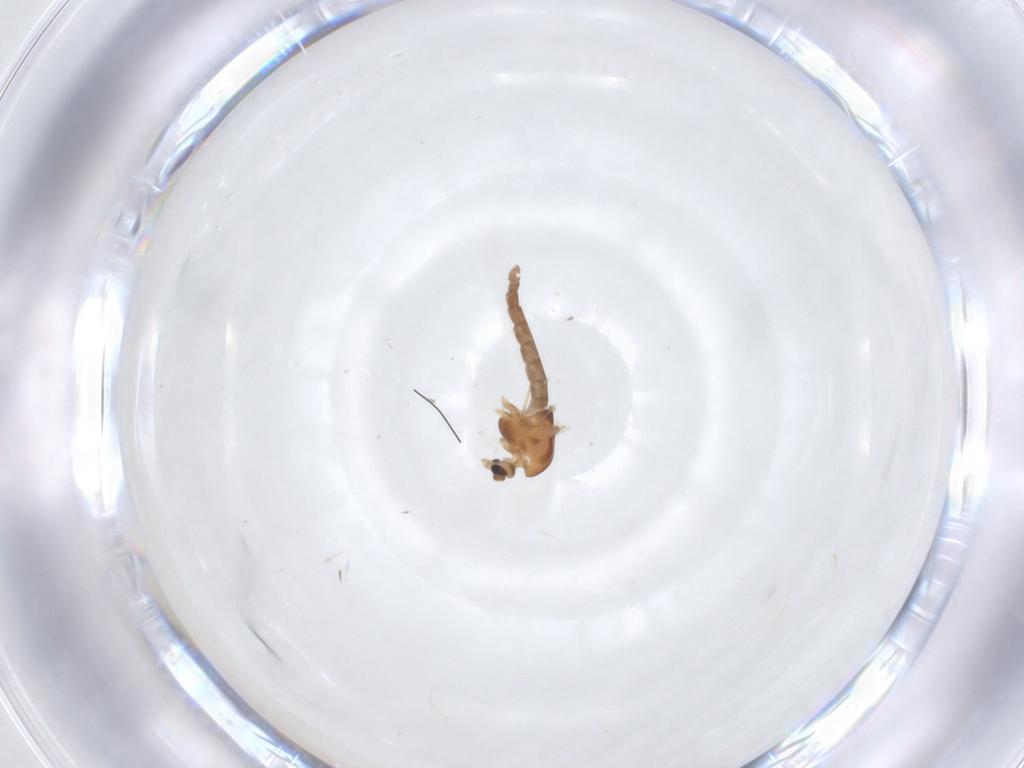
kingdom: Animalia
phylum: Arthropoda
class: Insecta
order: Diptera
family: Chironomidae
